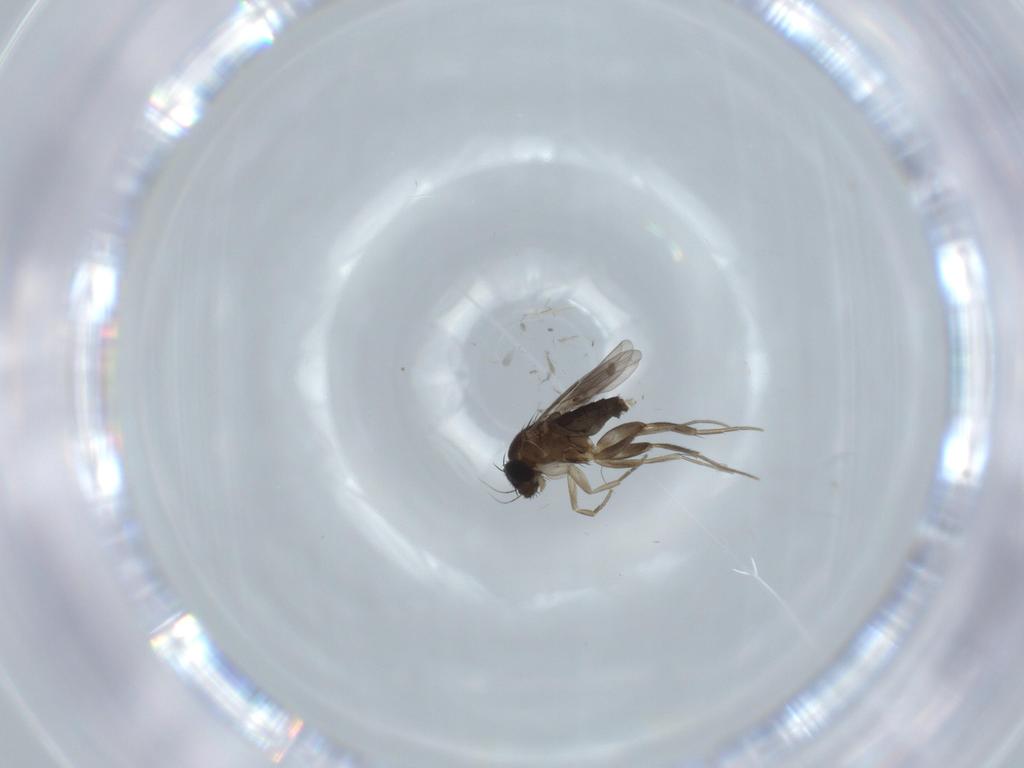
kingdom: Animalia
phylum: Arthropoda
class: Insecta
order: Diptera
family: Phoridae
